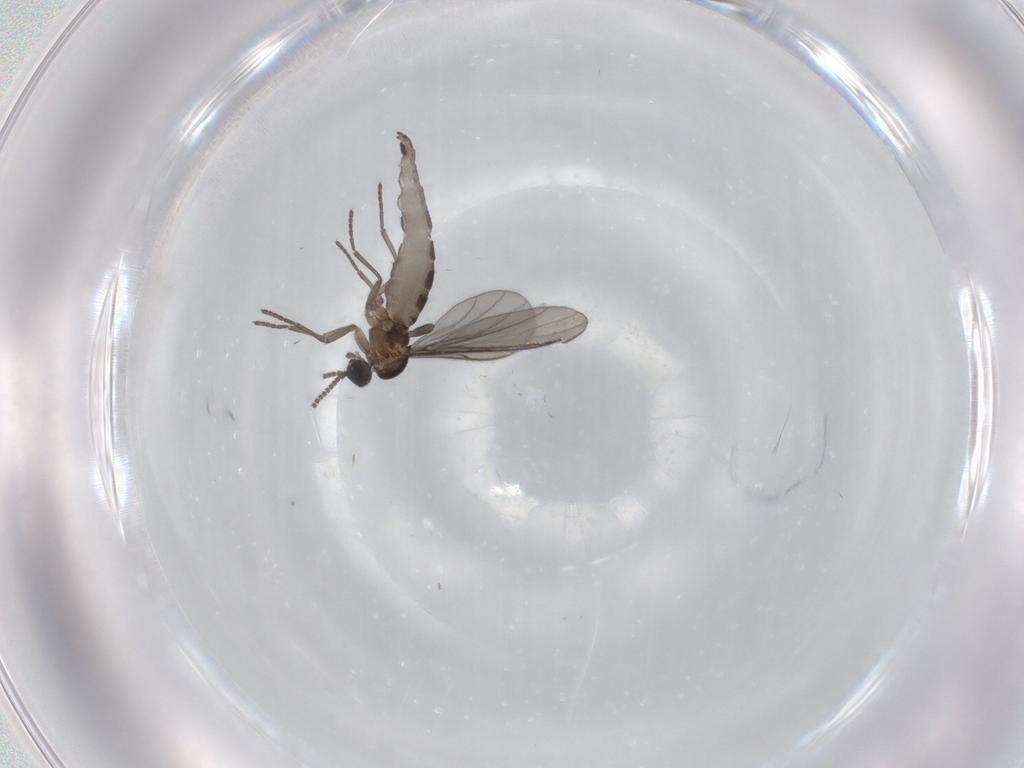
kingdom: Animalia
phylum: Arthropoda
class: Insecta
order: Diptera
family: Sciaridae
